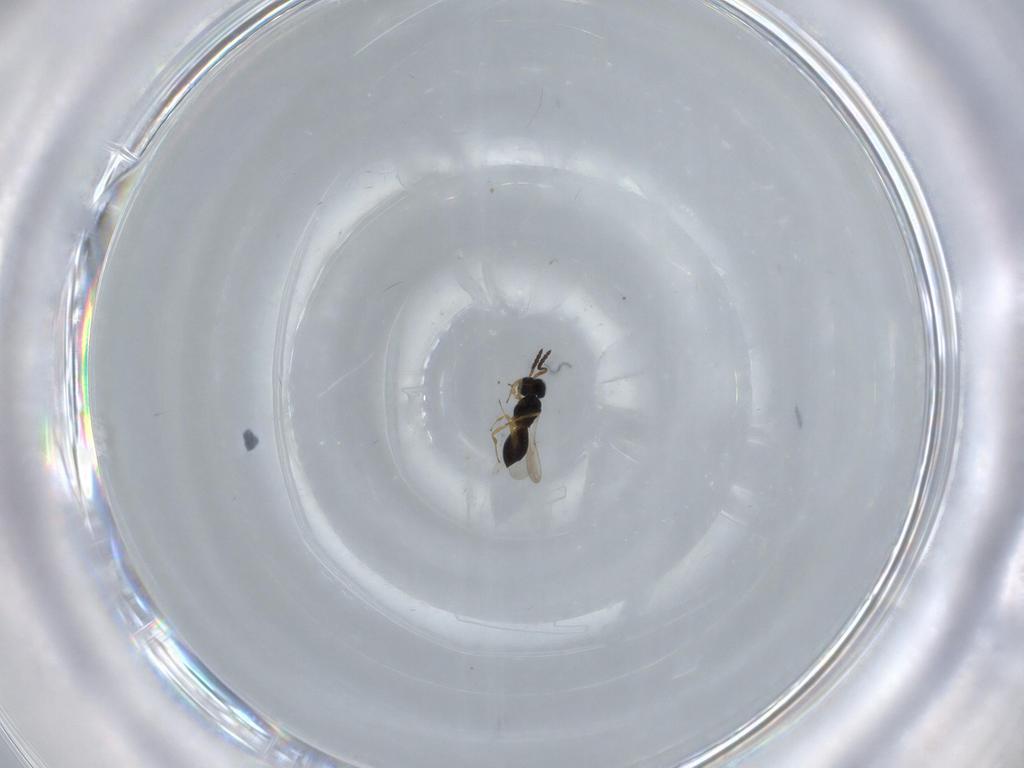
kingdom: Animalia
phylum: Arthropoda
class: Insecta
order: Hymenoptera
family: Scelionidae
